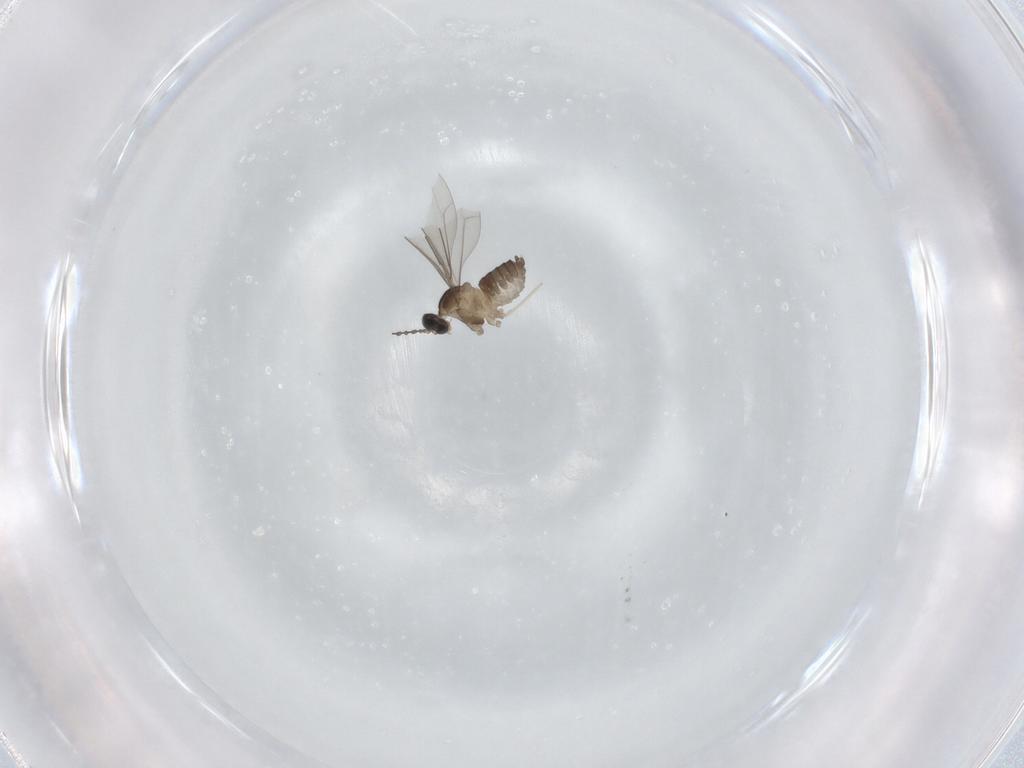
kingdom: Animalia
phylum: Arthropoda
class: Insecta
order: Diptera
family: Cecidomyiidae
